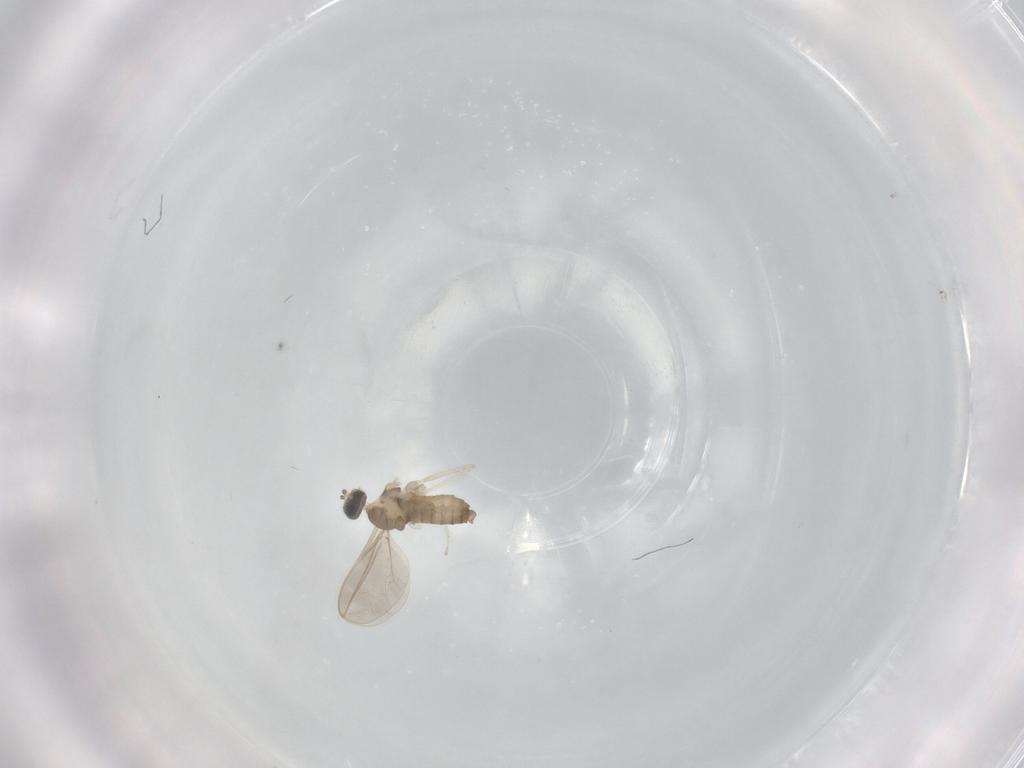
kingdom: Animalia
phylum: Arthropoda
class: Insecta
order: Diptera
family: Cecidomyiidae
